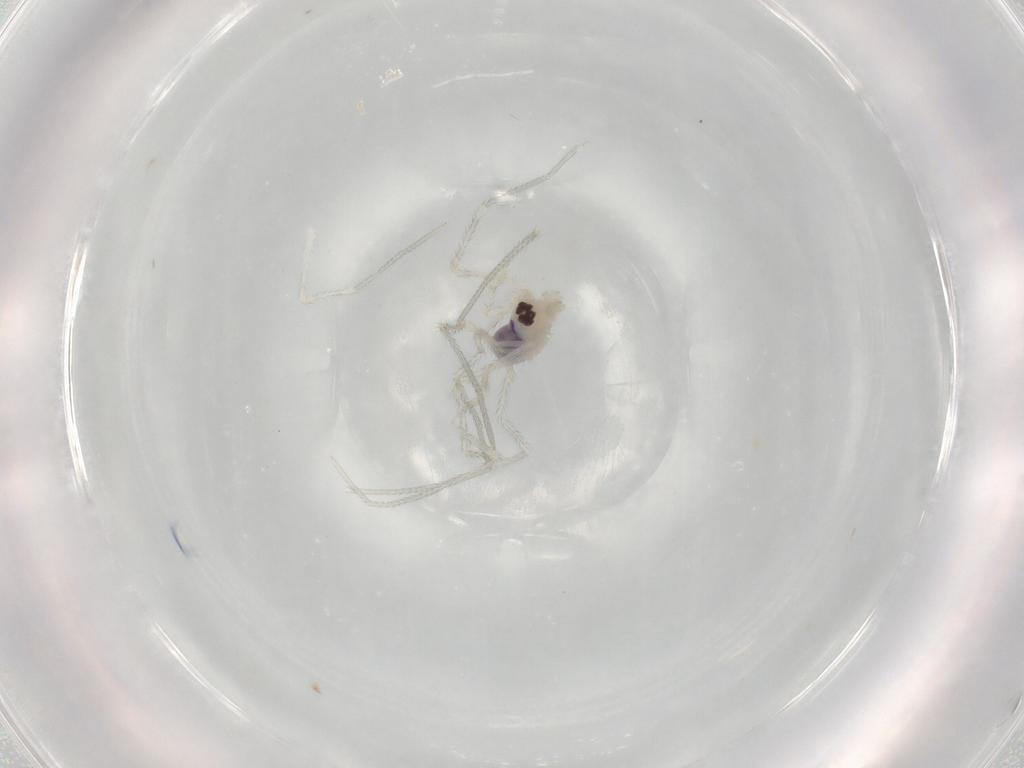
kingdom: Animalia
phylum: Arthropoda
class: Arachnida
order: Araneae
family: Pholcidae
